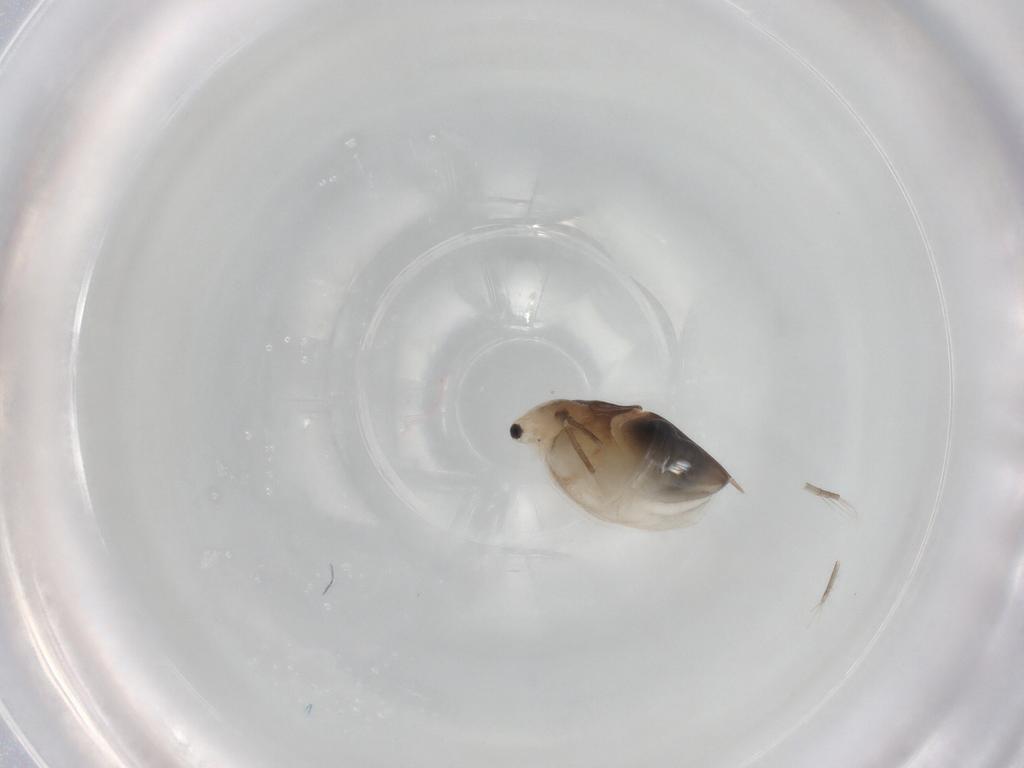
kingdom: Animalia
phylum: Arthropoda
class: Branchiopoda
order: Diplostraca
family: Daphniidae
